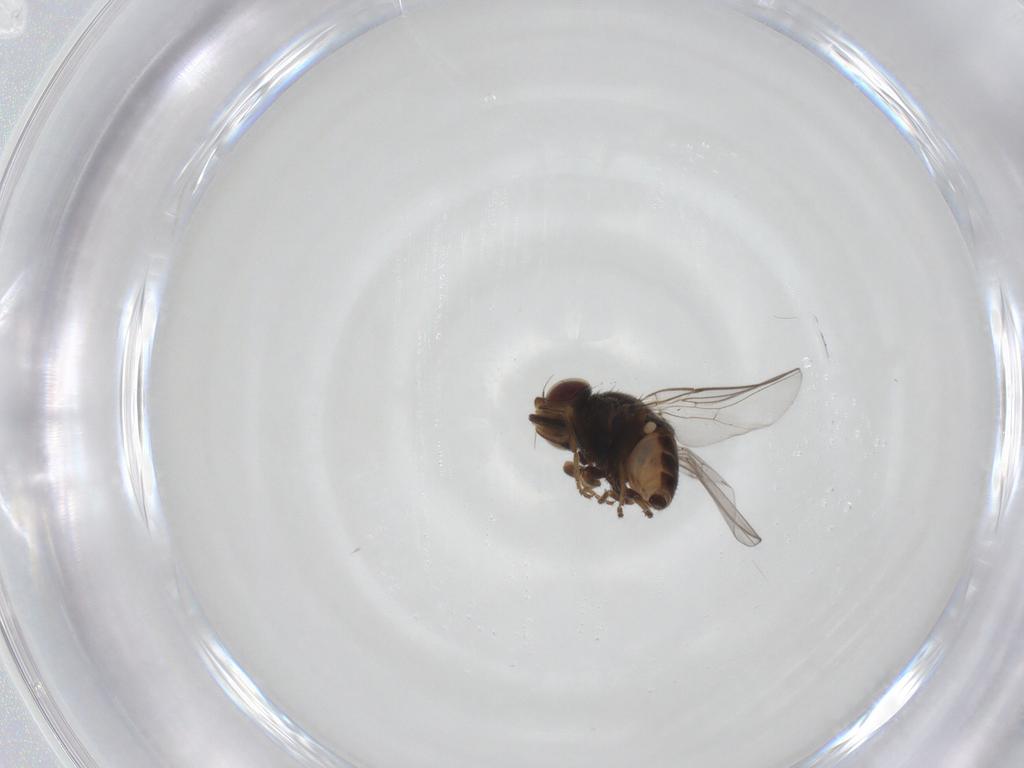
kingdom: Animalia
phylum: Arthropoda
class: Insecta
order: Diptera
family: Chloropidae
